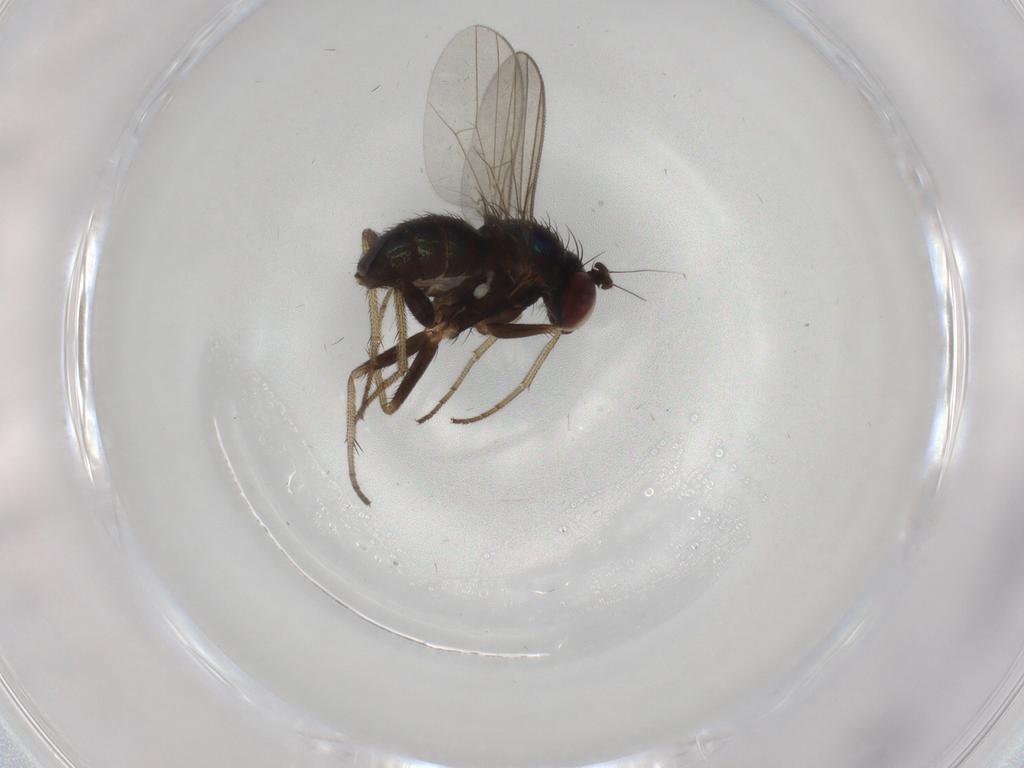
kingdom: Animalia
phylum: Arthropoda
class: Insecta
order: Diptera
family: Dolichopodidae
